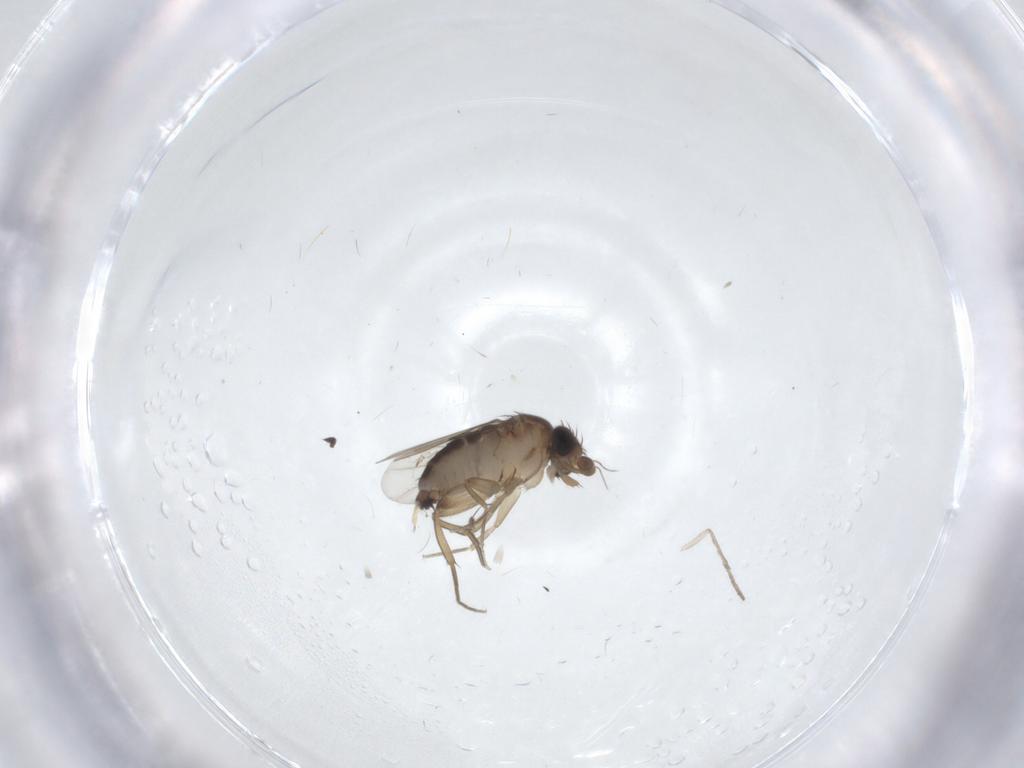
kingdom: Animalia
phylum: Arthropoda
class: Insecta
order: Diptera
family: Phoridae
